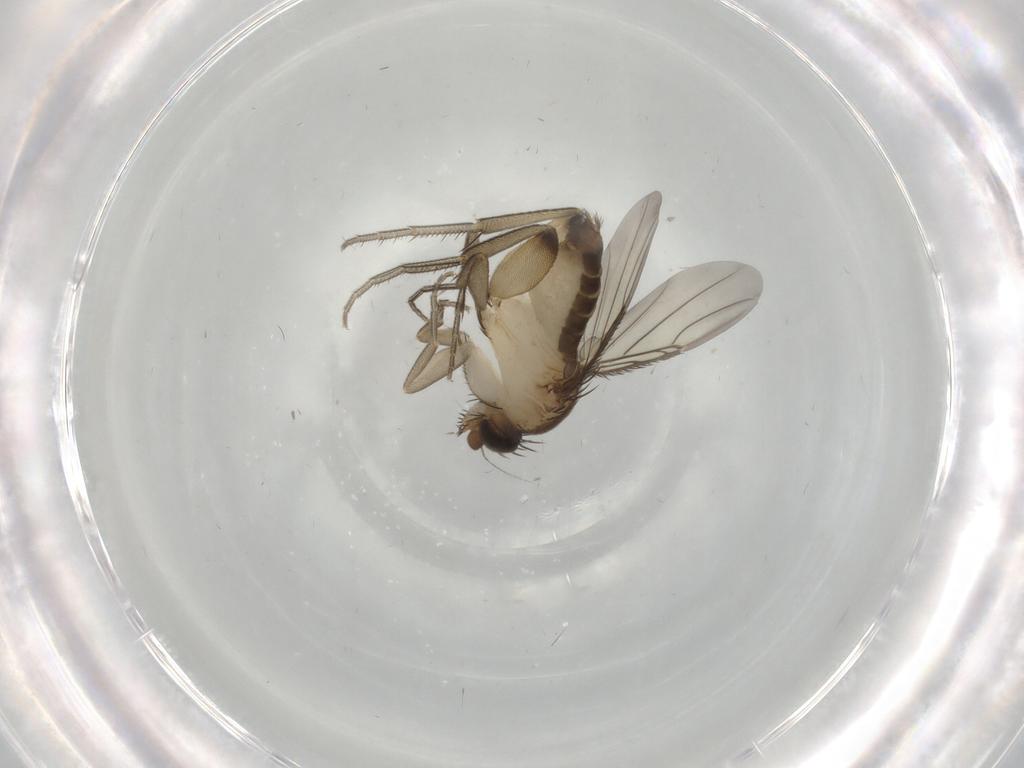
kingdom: Animalia
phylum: Arthropoda
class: Insecta
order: Diptera
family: Phoridae
